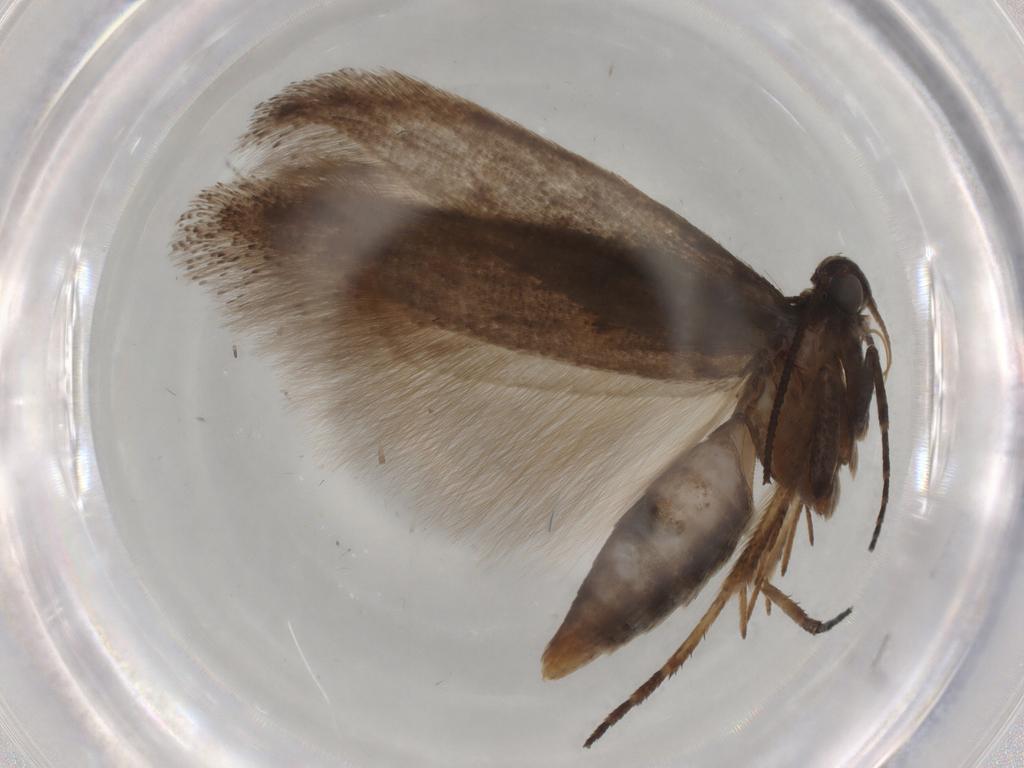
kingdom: Animalia
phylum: Arthropoda
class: Insecta
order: Lepidoptera
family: Gelechiidae
